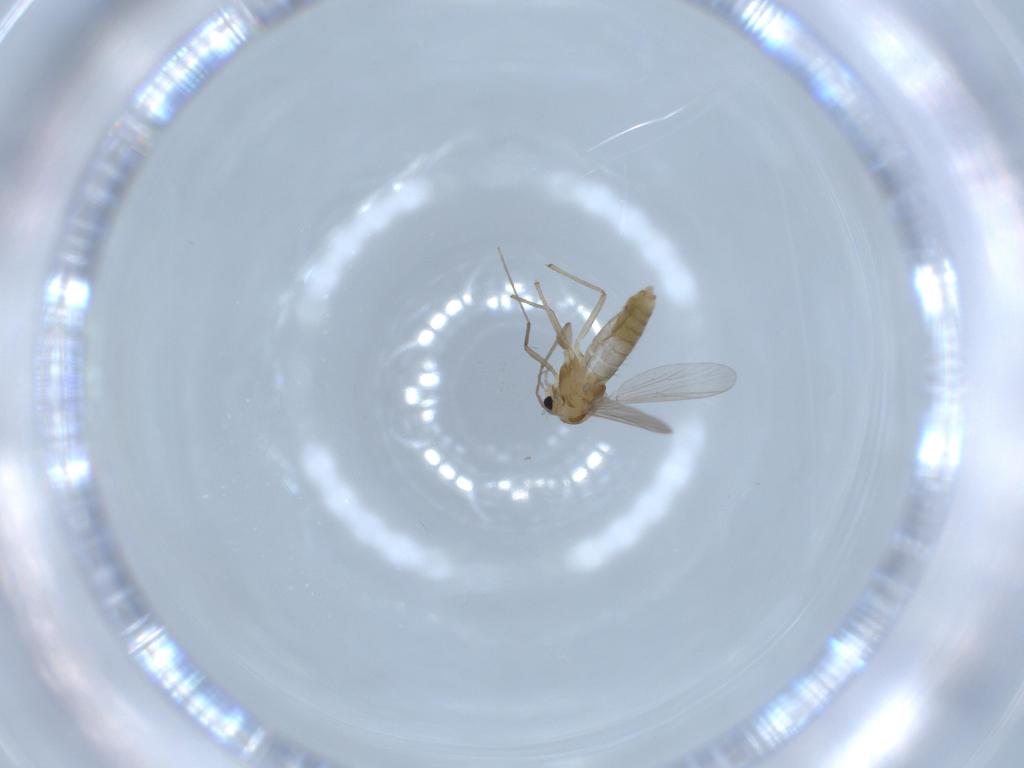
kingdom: Animalia
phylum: Arthropoda
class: Insecta
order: Diptera
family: Chironomidae
